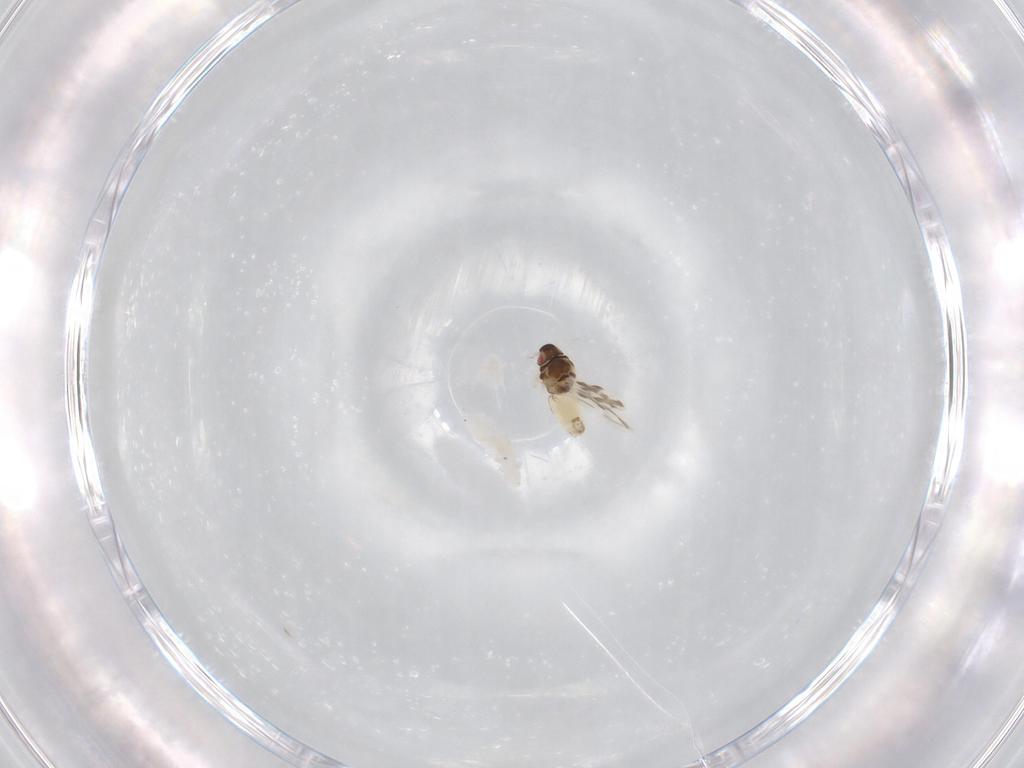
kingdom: Animalia
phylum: Arthropoda
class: Insecta
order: Hemiptera
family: Aleyrodidae
